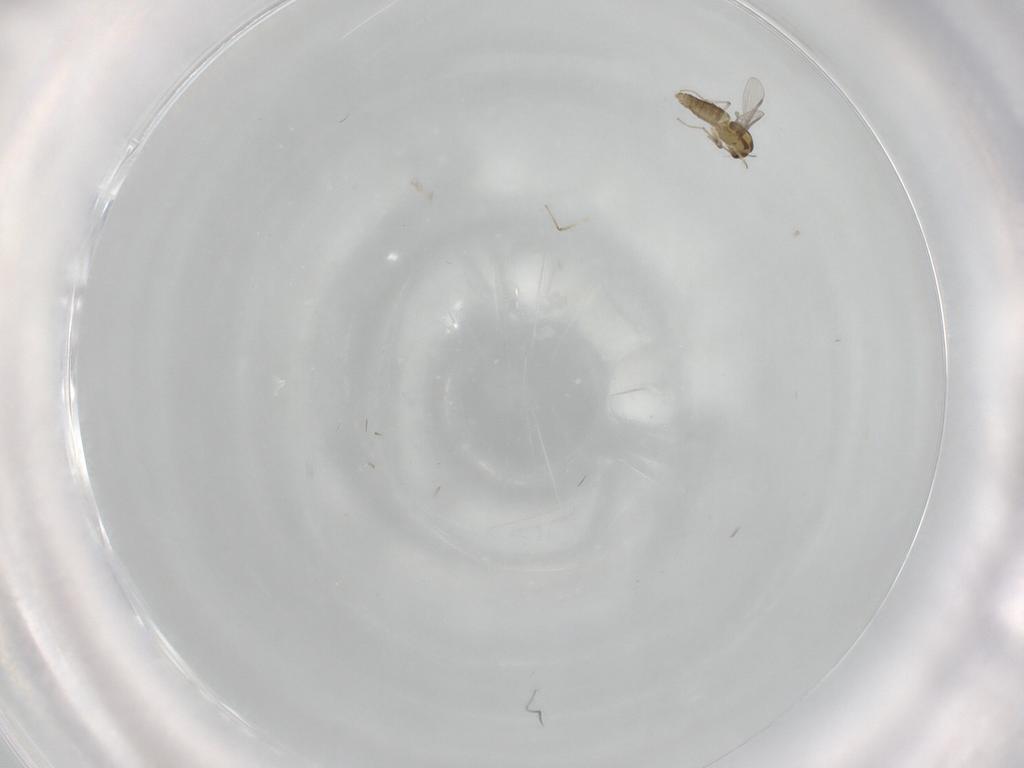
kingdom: Animalia
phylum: Arthropoda
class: Insecta
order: Diptera
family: Chironomidae
